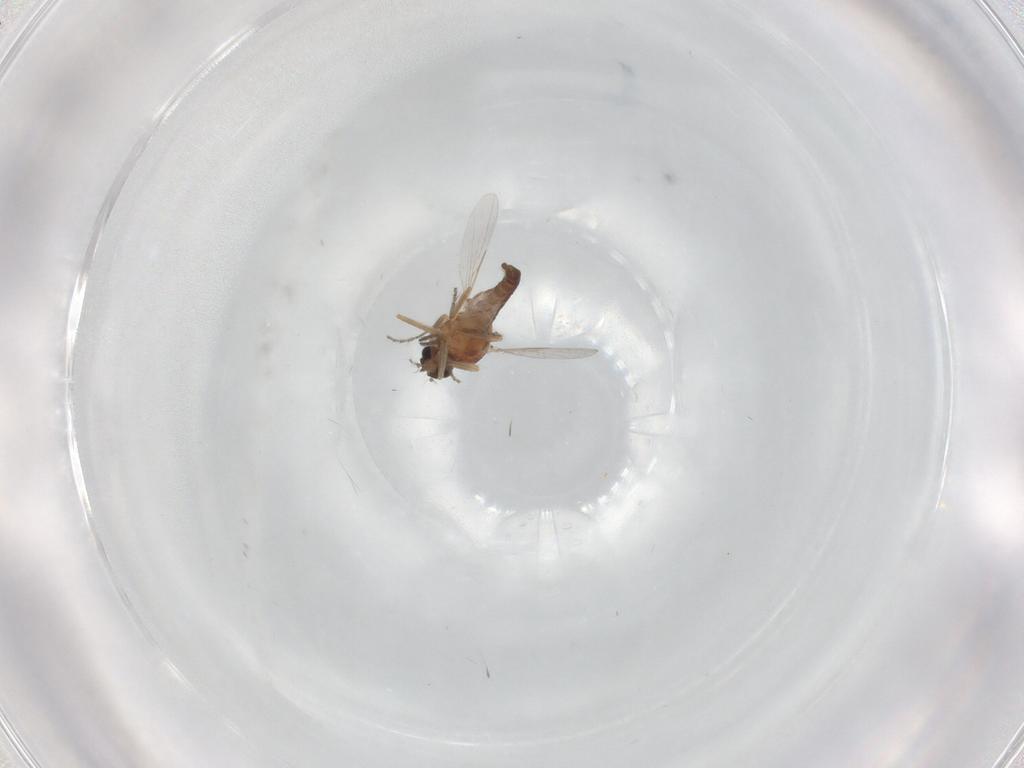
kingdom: Animalia
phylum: Arthropoda
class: Insecta
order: Diptera
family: Ceratopogonidae
